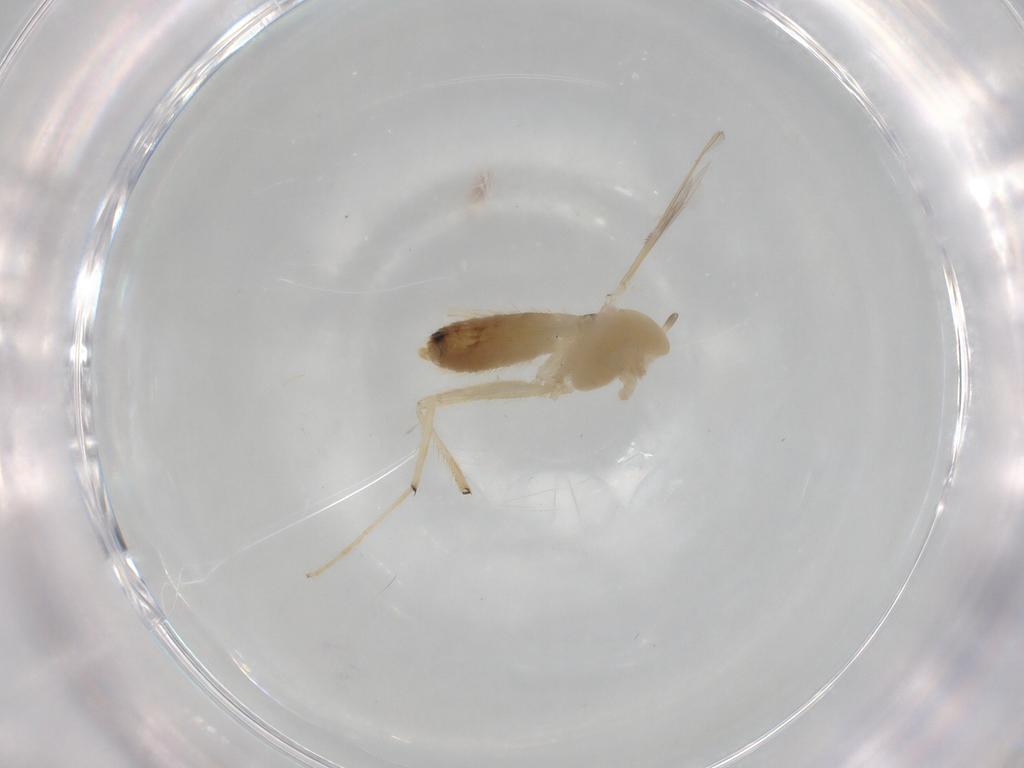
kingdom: Animalia
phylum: Arthropoda
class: Insecta
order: Diptera
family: Chironomidae
